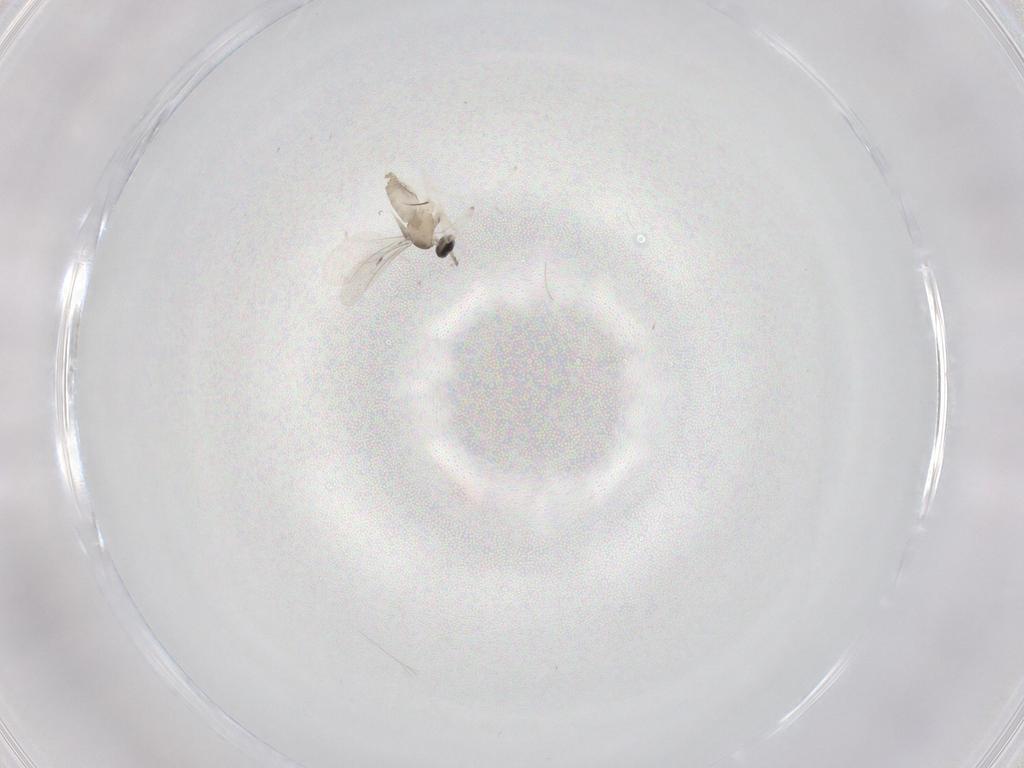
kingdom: Animalia
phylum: Arthropoda
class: Insecta
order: Diptera
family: Cecidomyiidae
